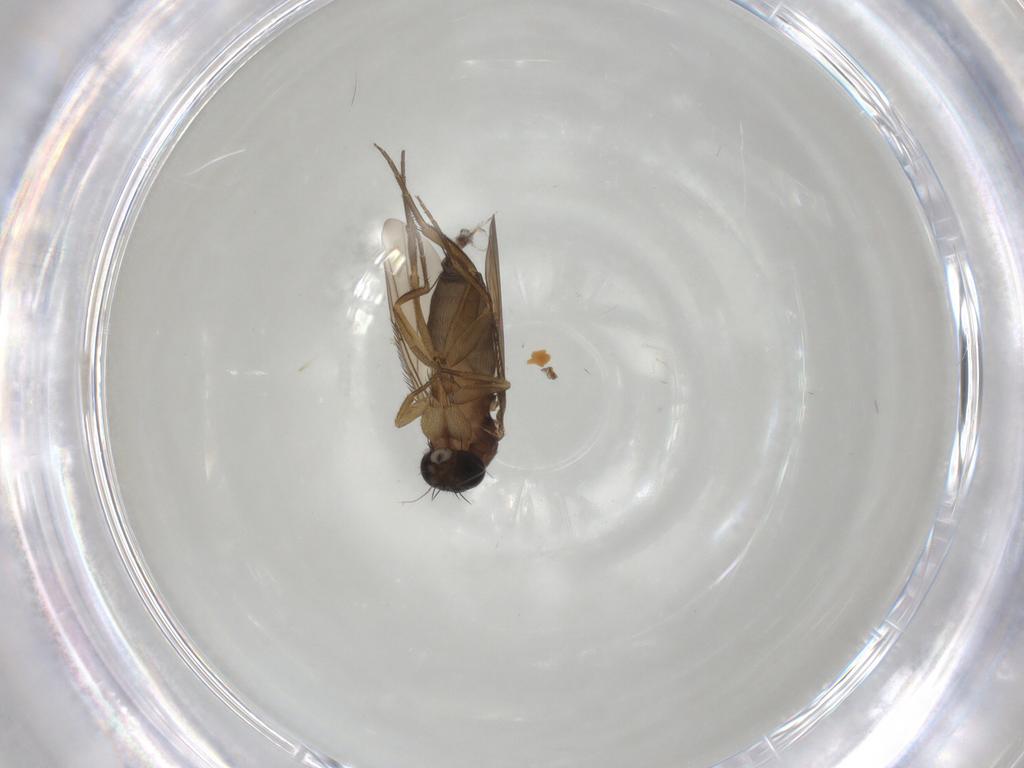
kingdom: Animalia
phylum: Arthropoda
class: Insecta
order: Diptera
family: Phoridae
